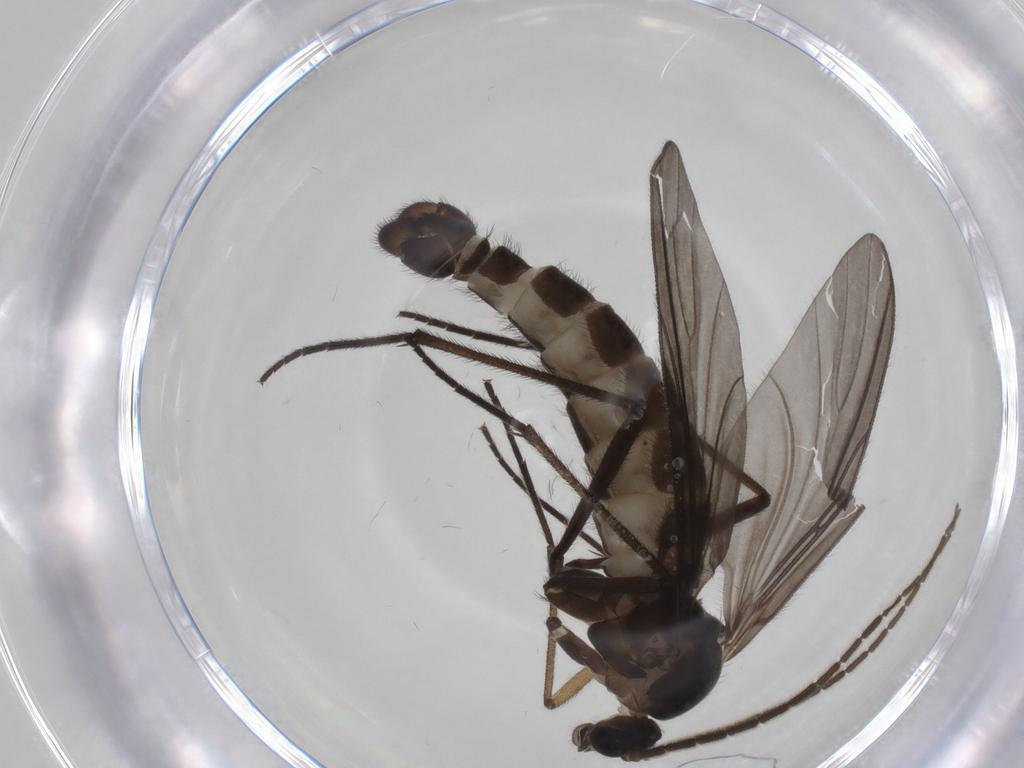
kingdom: Animalia
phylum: Arthropoda
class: Insecta
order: Diptera
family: Sciaridae
